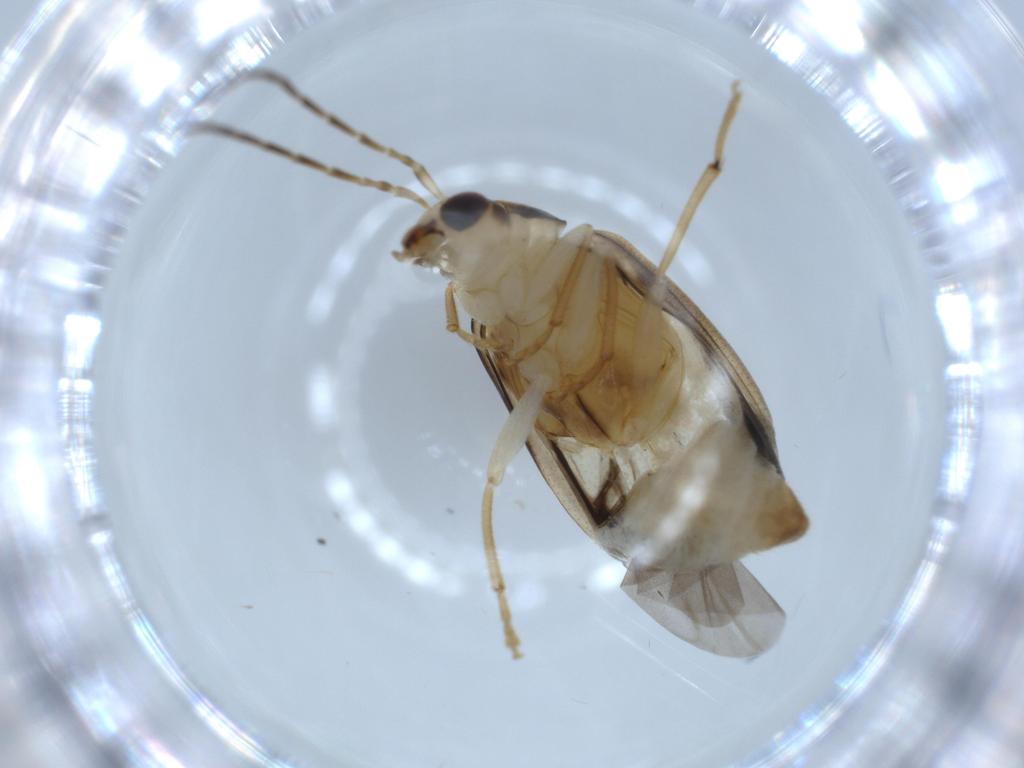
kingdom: Animalia
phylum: Arthropoda
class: Insecta
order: Coleoptera
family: Chrysomelidae
